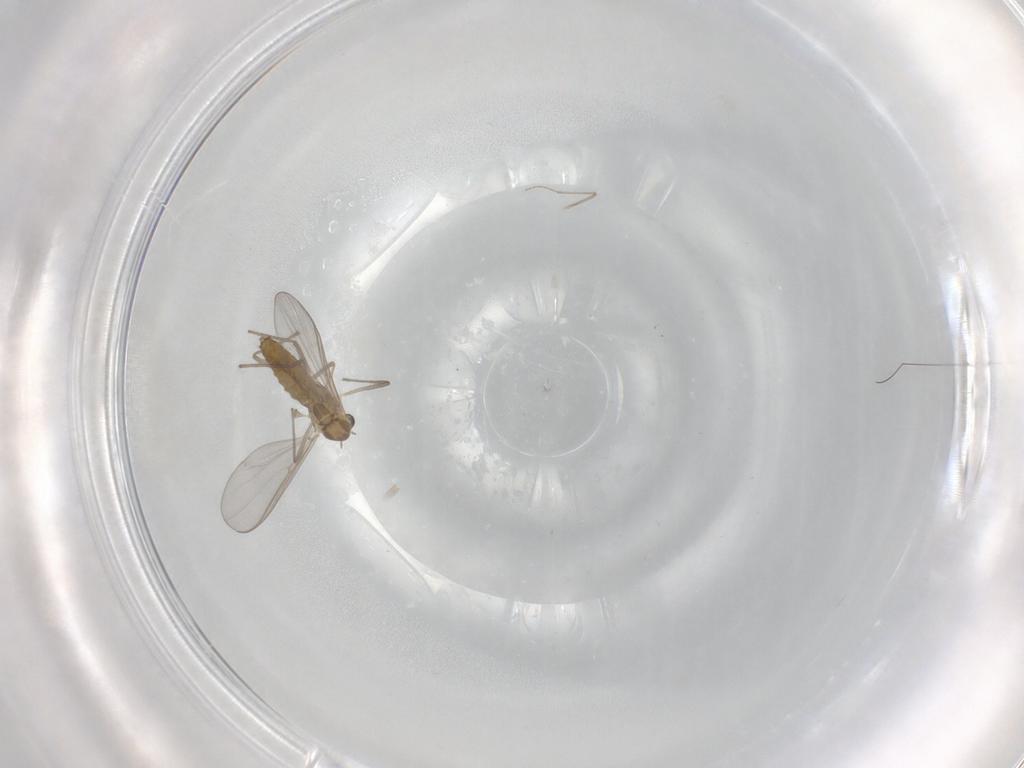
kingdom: Animalia
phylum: Arthropoda
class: Insecta
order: Diptera
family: Chironomidae
